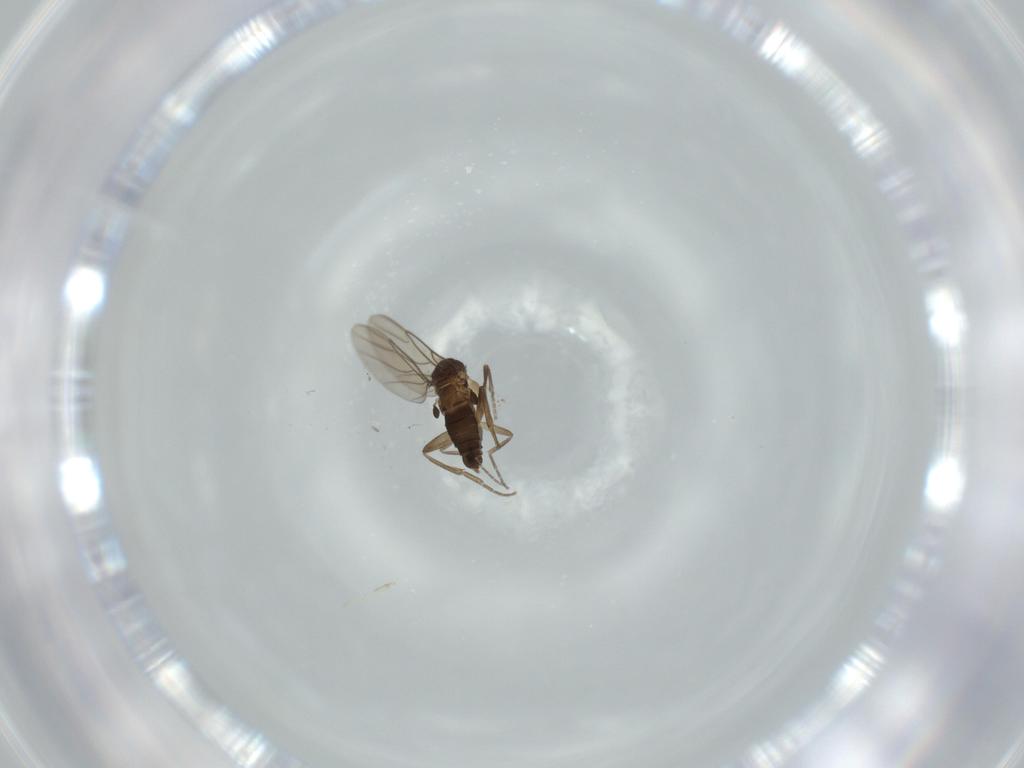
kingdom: Animalia
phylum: Arthropoda
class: Insecta
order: Diptera
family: Phoridae
